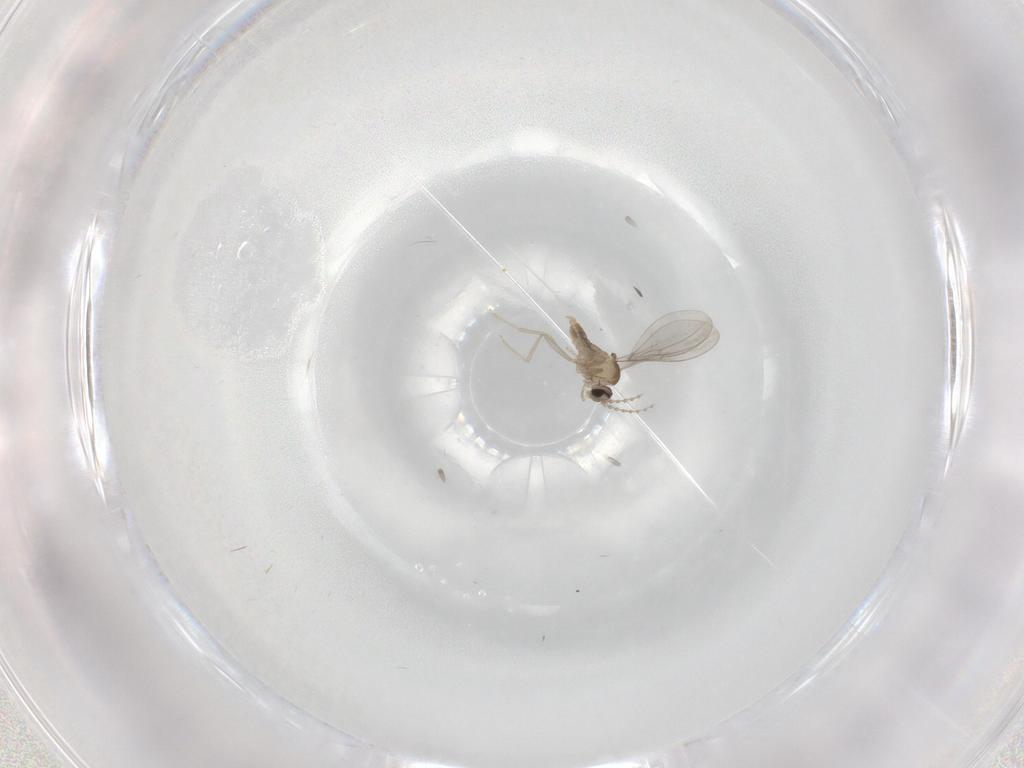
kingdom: Animalia
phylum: Arthropoda
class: Insecta
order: Diptera
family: Cecidomyiidae
